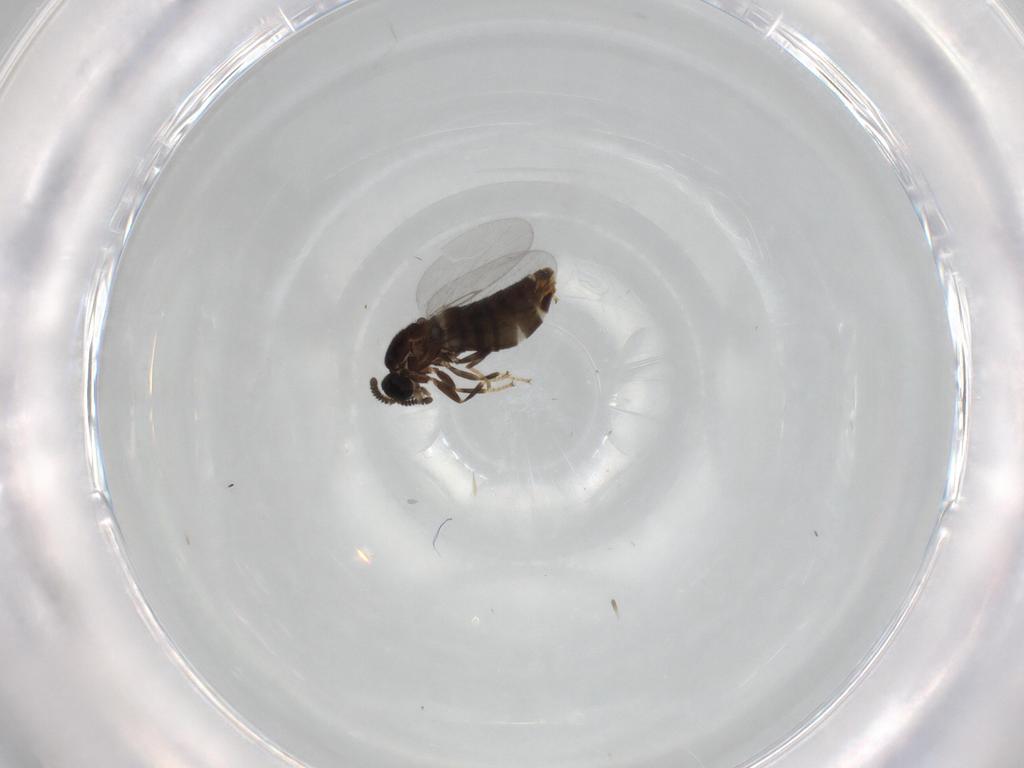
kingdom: Animalia
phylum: Arthropoda
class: Insecta
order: Diptera
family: Scatopsidae
